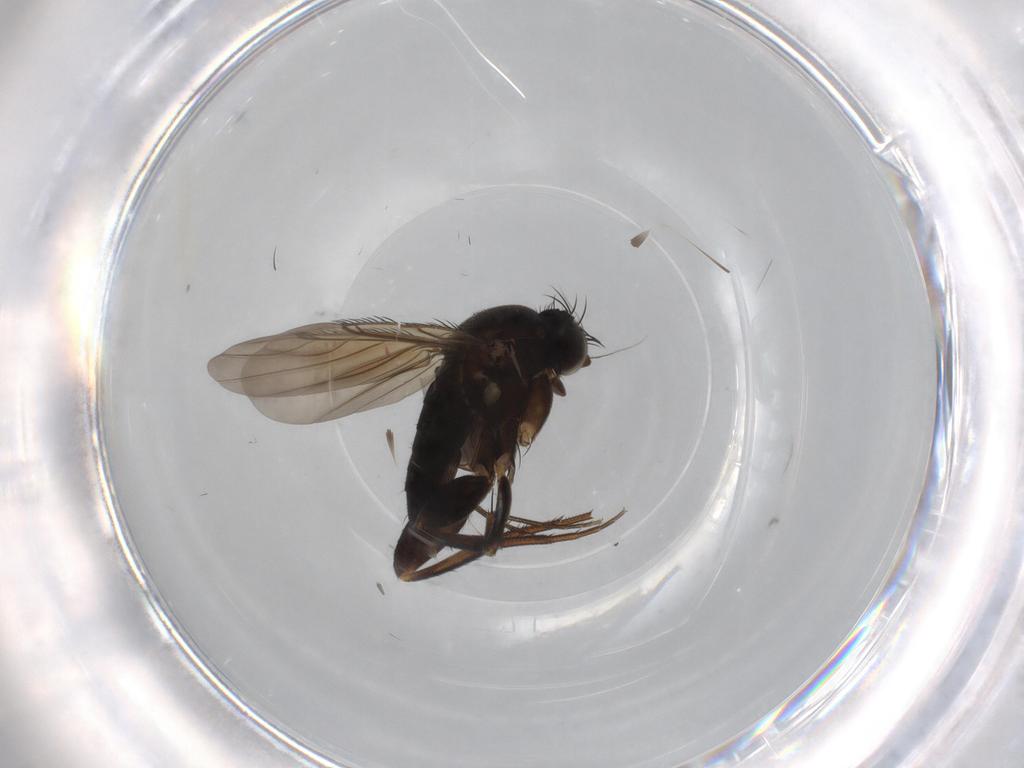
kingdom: Animalia
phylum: Arthropoda
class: Insecta
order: Diptera
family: Phoridae
